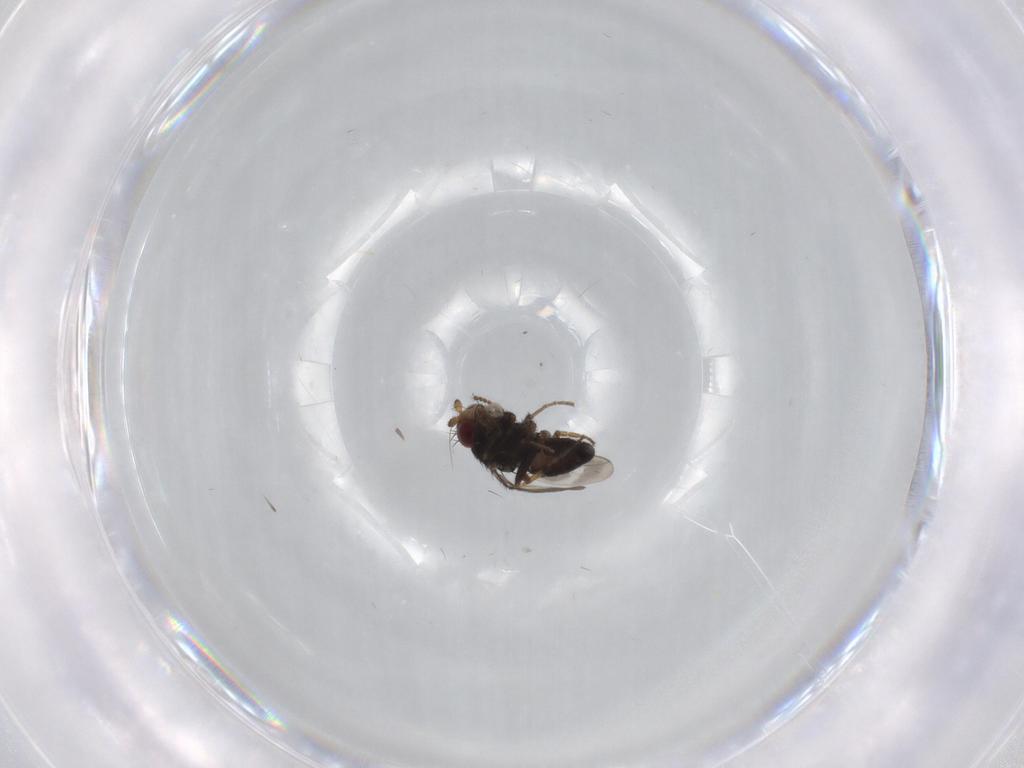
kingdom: Animalia
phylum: Arthropoda
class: Insecta
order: Diptera
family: Sphaeroceridae
